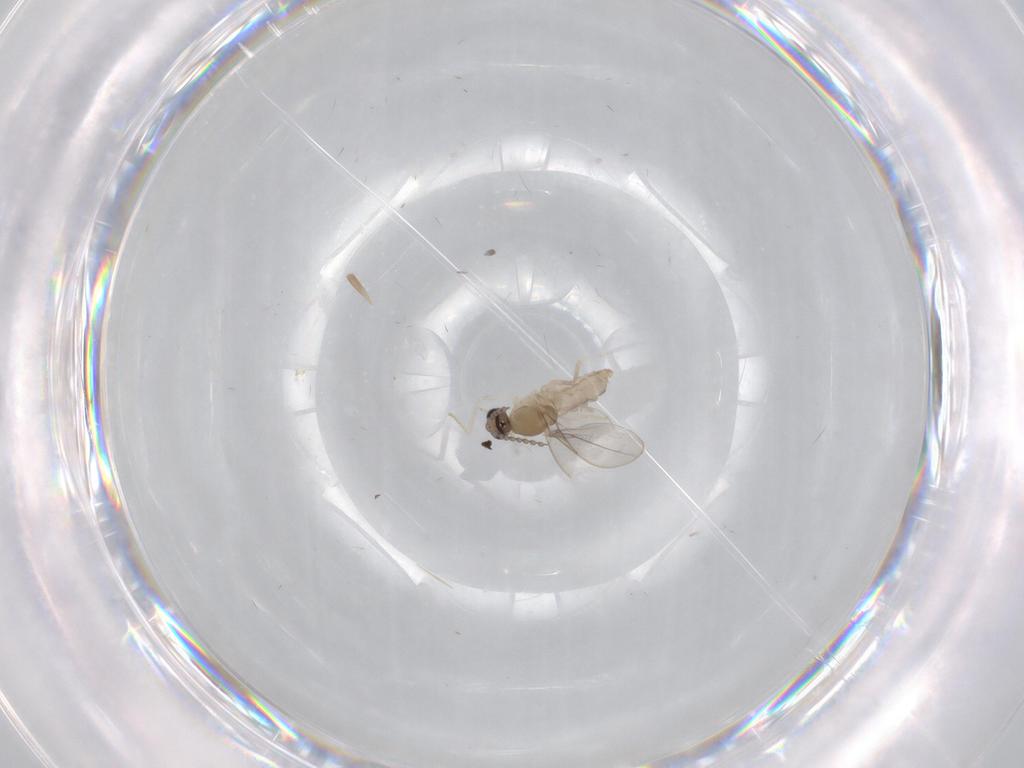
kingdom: Animalia
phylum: Arthropoda
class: Insecta
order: Diptera
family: Cecidomyiidae
